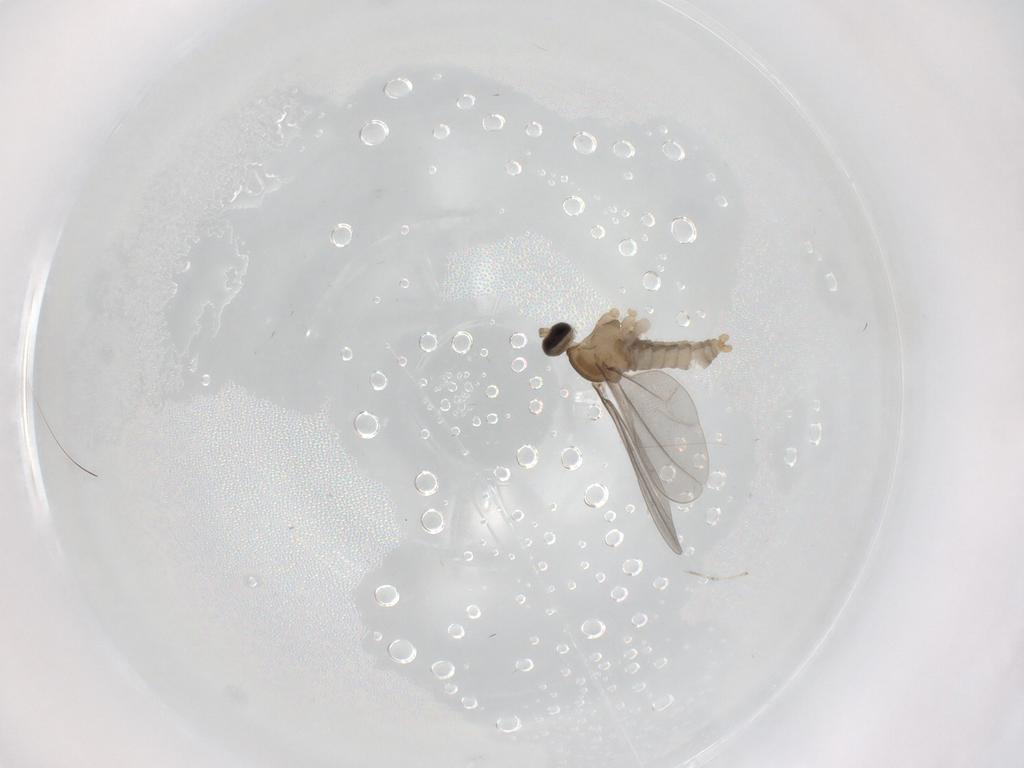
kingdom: Animalia
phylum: Arthropoda
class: Insecta
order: Diptera
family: Cecidomyiidae
